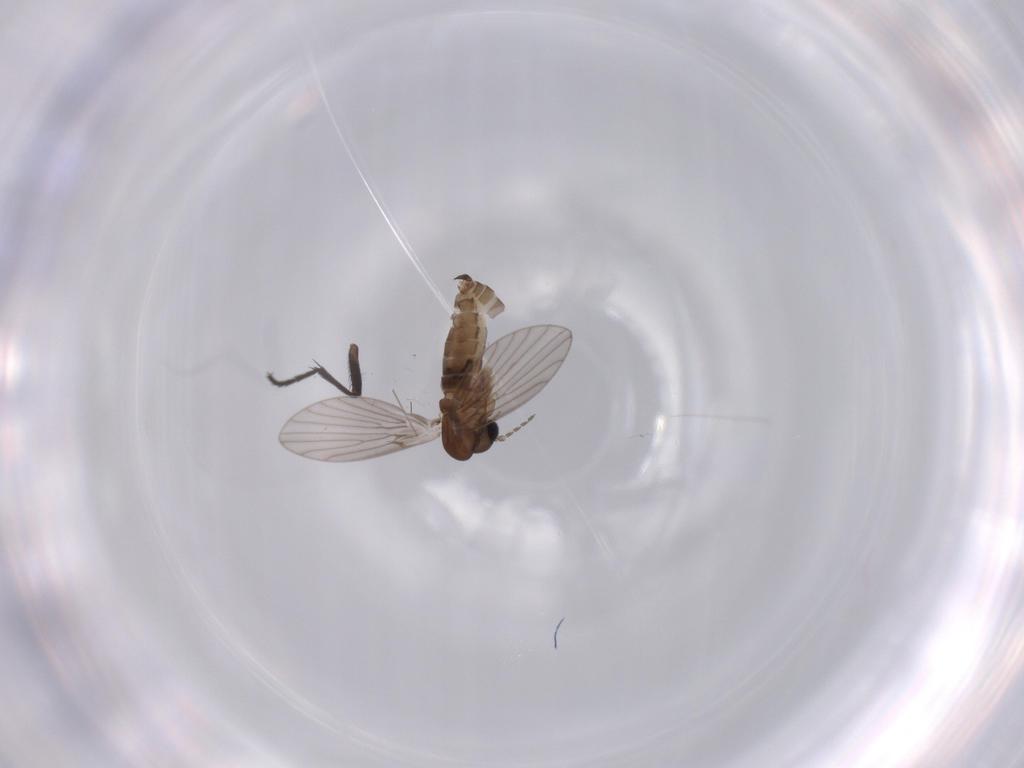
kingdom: Animalia
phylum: Arthropoda
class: Insecta
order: Diptera
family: Psychodidae
